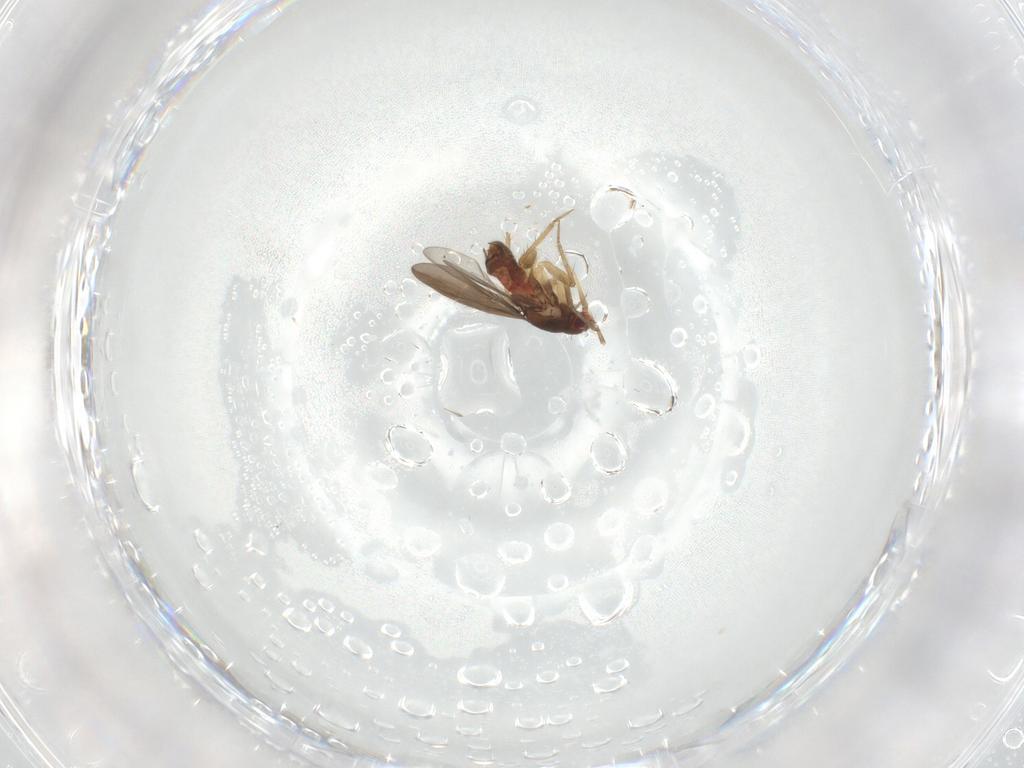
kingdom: Animalia
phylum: Arthropoda
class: Insecta
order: Hemiptera
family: Ceratocombidae
